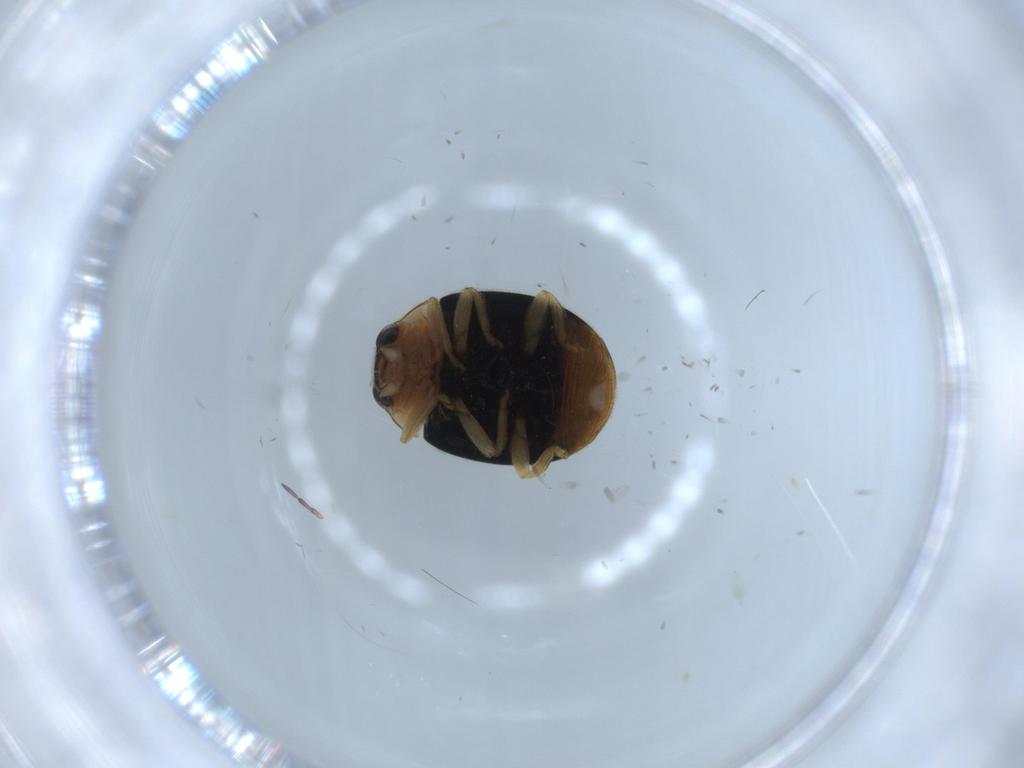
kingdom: Animalia
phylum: Arthropoda
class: Insecta
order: Coleoptera
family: Coccinellidae
